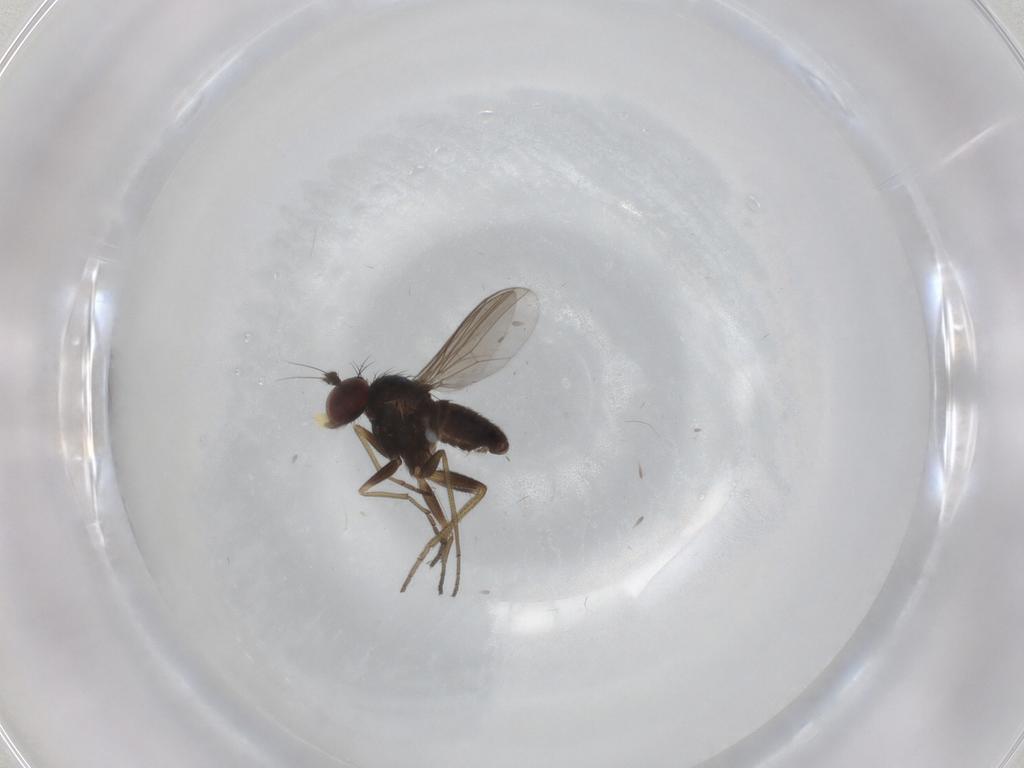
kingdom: Animalia
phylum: Arthropoda
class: Insecta
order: Diptera
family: Dolichopodidae
